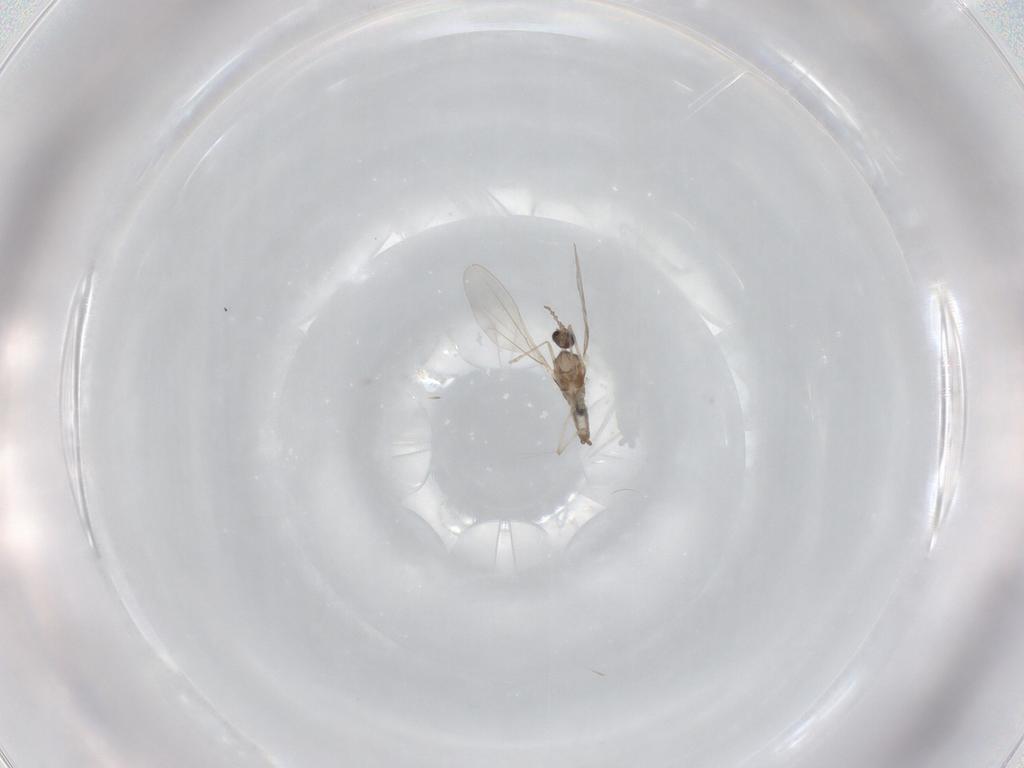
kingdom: Animalia
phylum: Arthropoda
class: Insecta
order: Diptera
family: Cecidomyiidae
